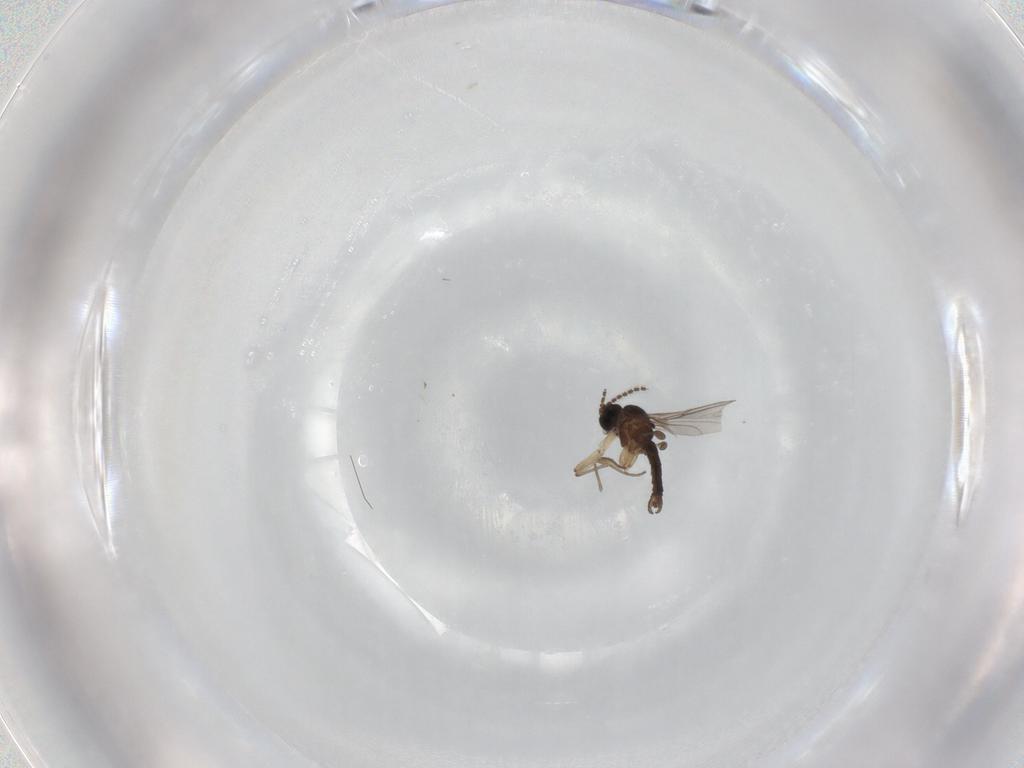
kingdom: Animalia
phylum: Arthropoda
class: Insecta
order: Diptera
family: Sciaridae
